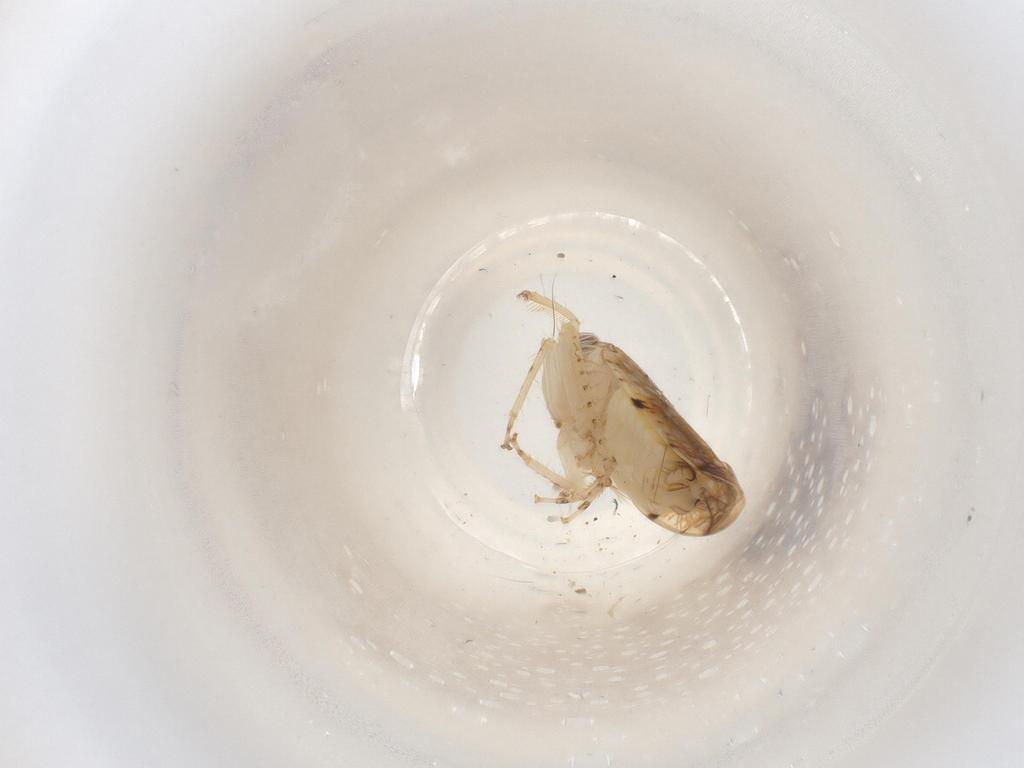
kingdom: Animalia
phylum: Arthropoda
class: Insecta
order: Hemiptera
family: Cicadellidae
